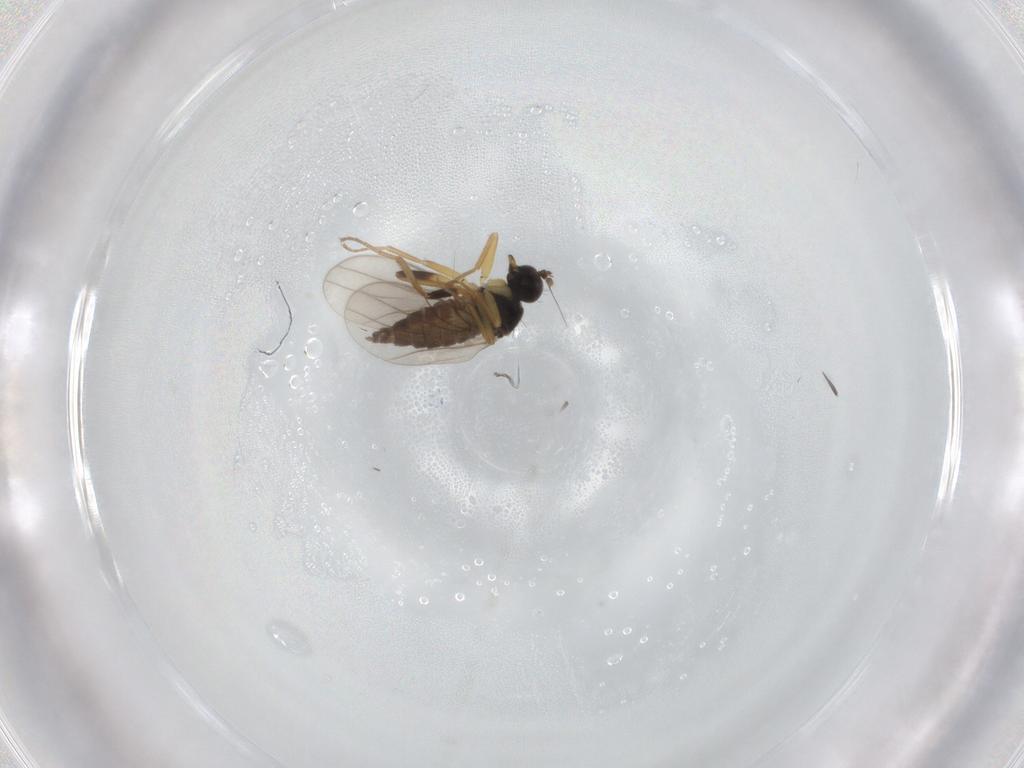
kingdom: Animalia
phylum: Arthropoda
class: Insecta
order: Diptera
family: Hybotidae
